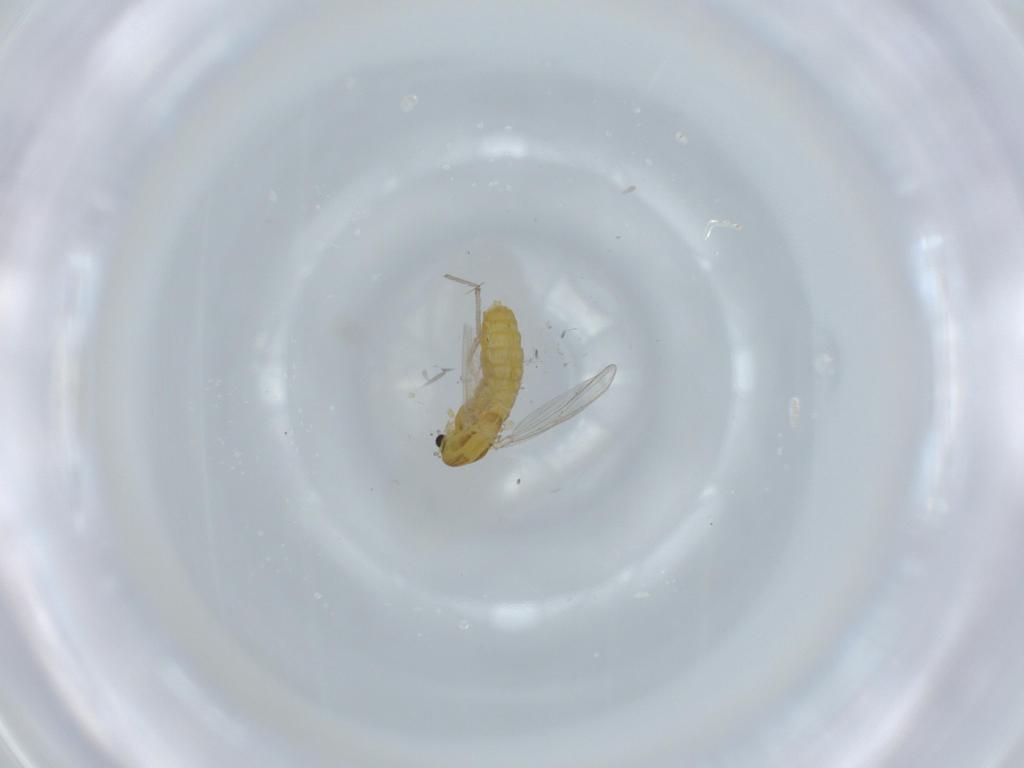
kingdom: Animalia
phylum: Arthropoda
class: Insecta
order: Diptera
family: Chironomidae
